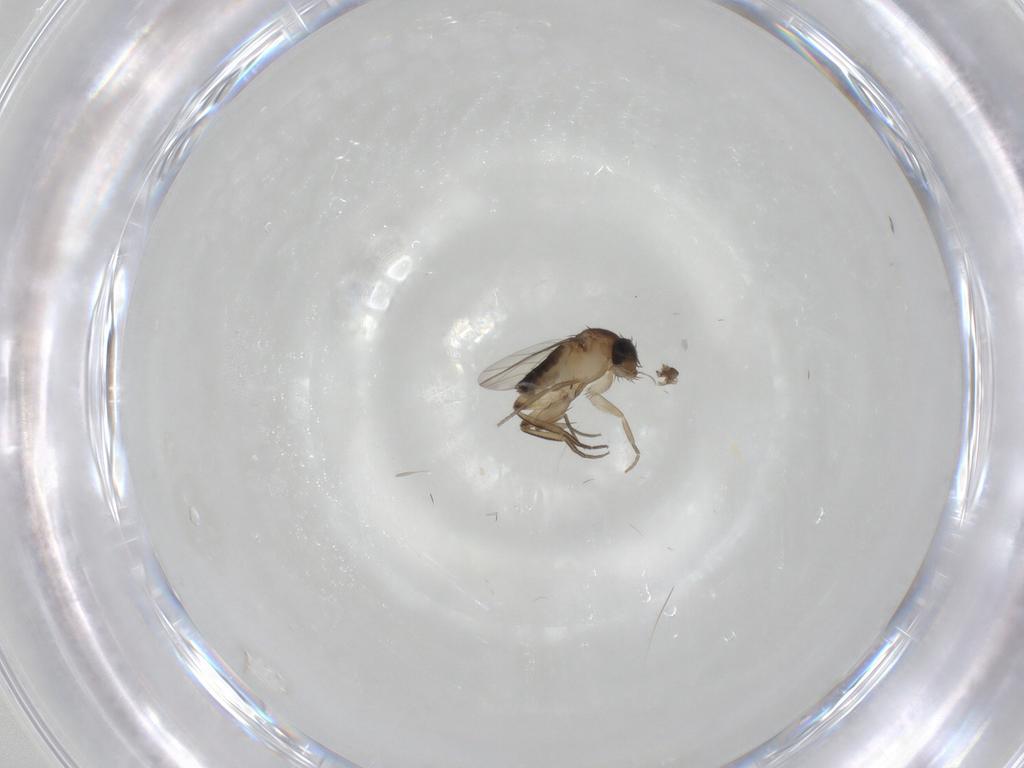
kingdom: Animalia
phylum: Arthropoda
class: Insecta
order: Diptera
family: Phoridae
